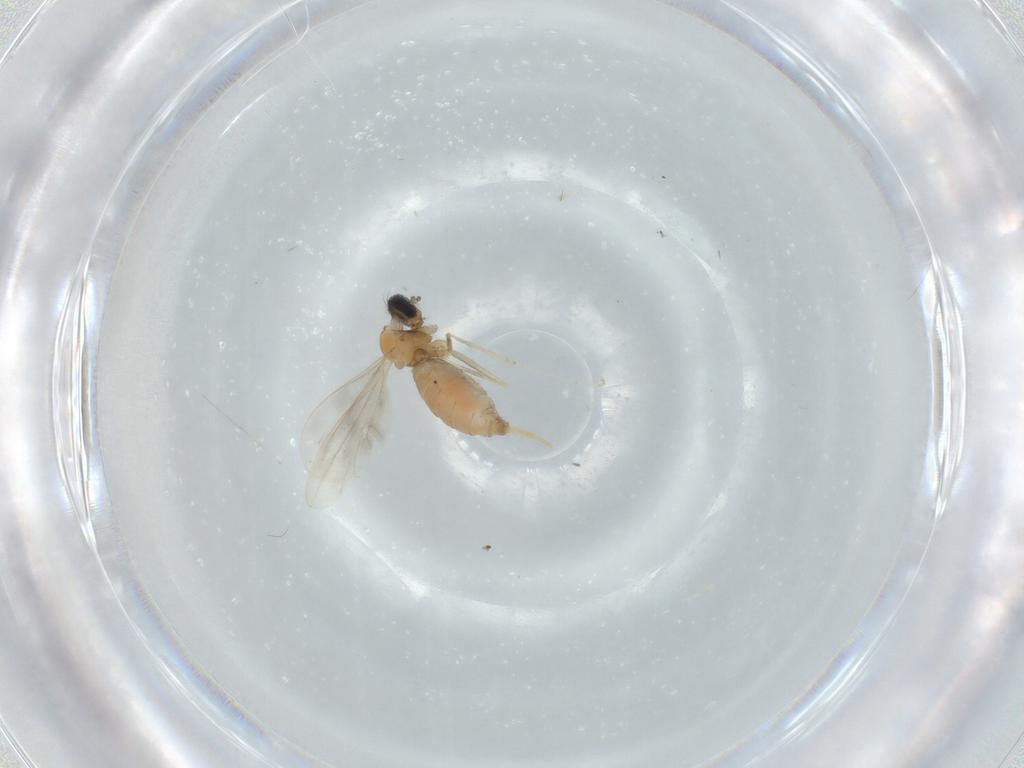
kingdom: Animalia
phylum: Arthropoda
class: Insecta
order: Diptera
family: Cecidomyiidae
